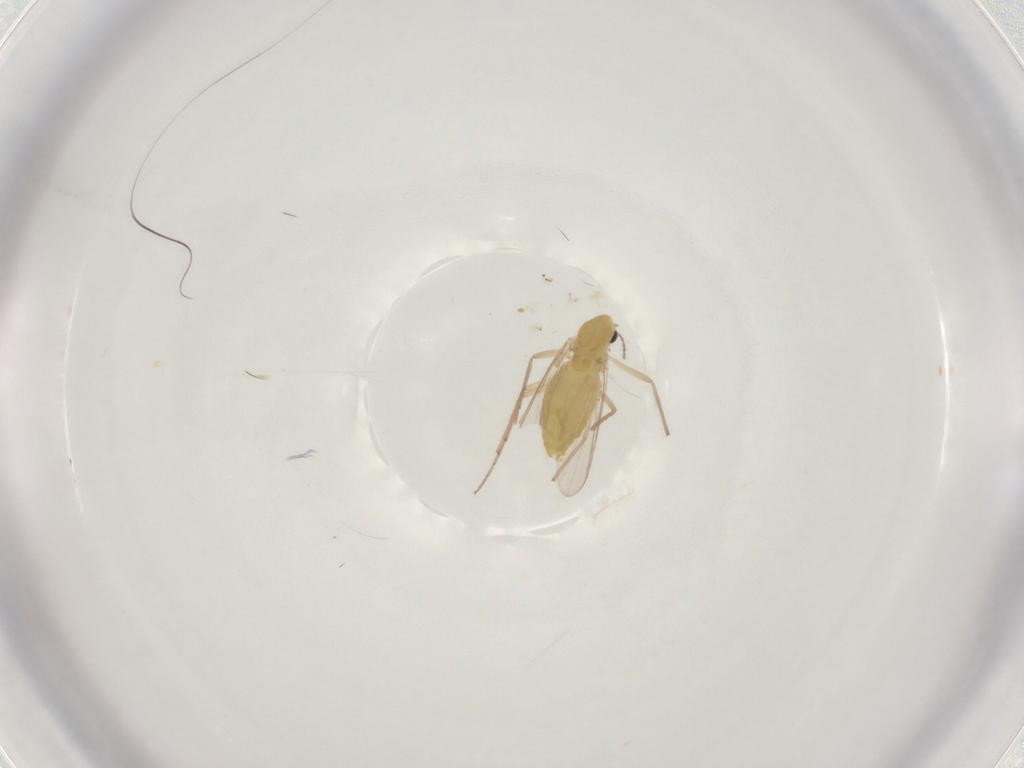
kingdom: Animalia
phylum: Arthropoda
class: Insecta
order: Diptera
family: Chironomidae
